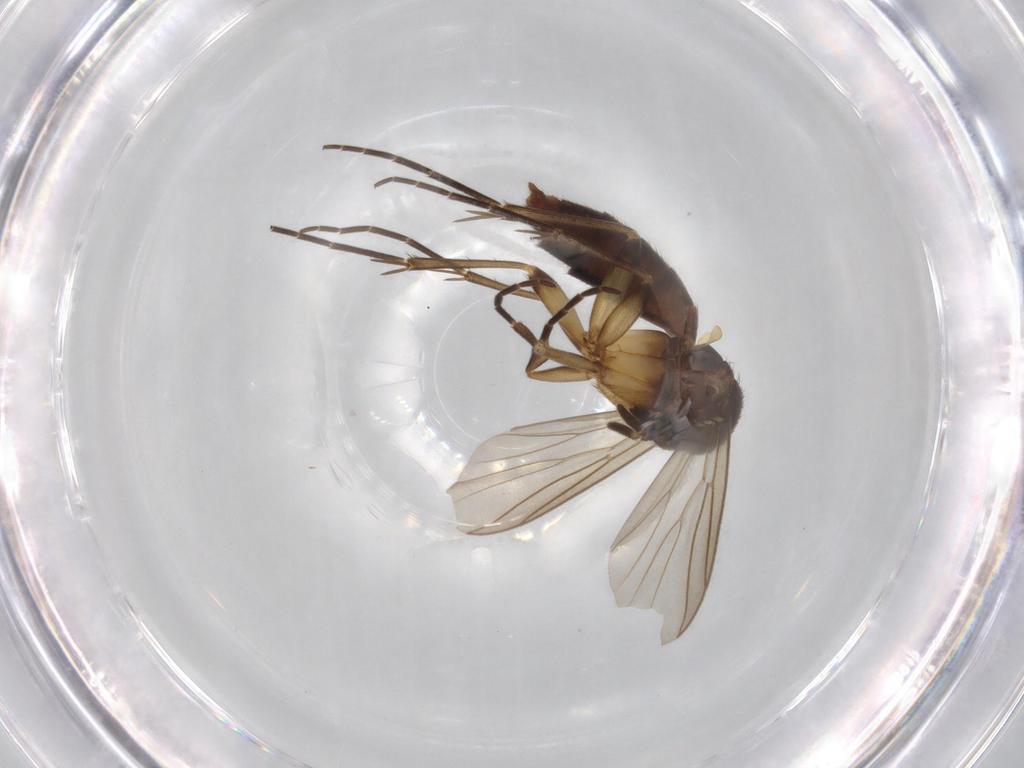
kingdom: Animalia
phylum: Arthropoda
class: Insecta
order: Diptera
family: Mycetophilidae
